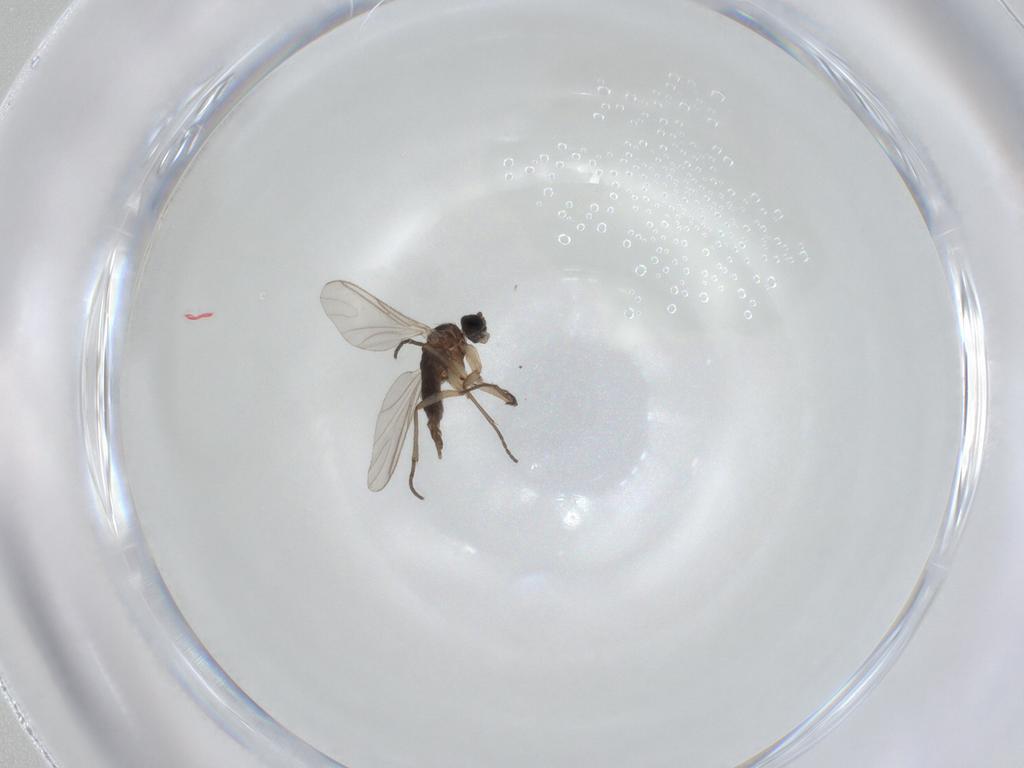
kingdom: Animalia
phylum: Arthropoda
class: Insecta
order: Diptera
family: Sciaridae
